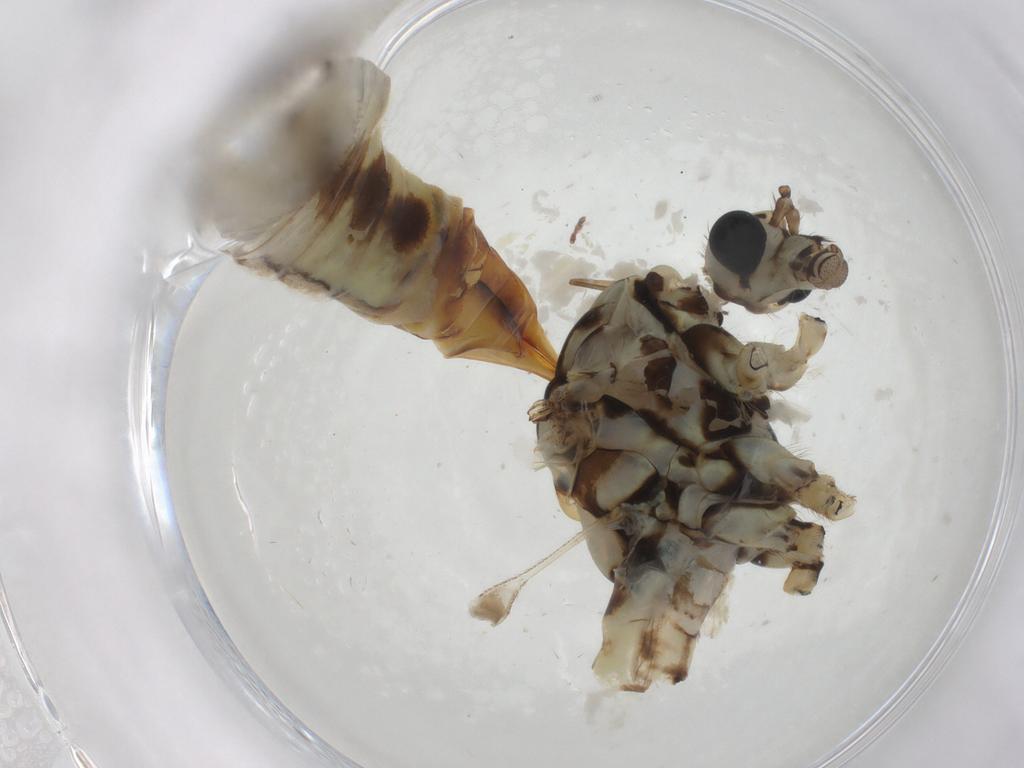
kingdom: Animalia
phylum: Arthropoda
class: Insecta
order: Diptera
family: Tipulidae
